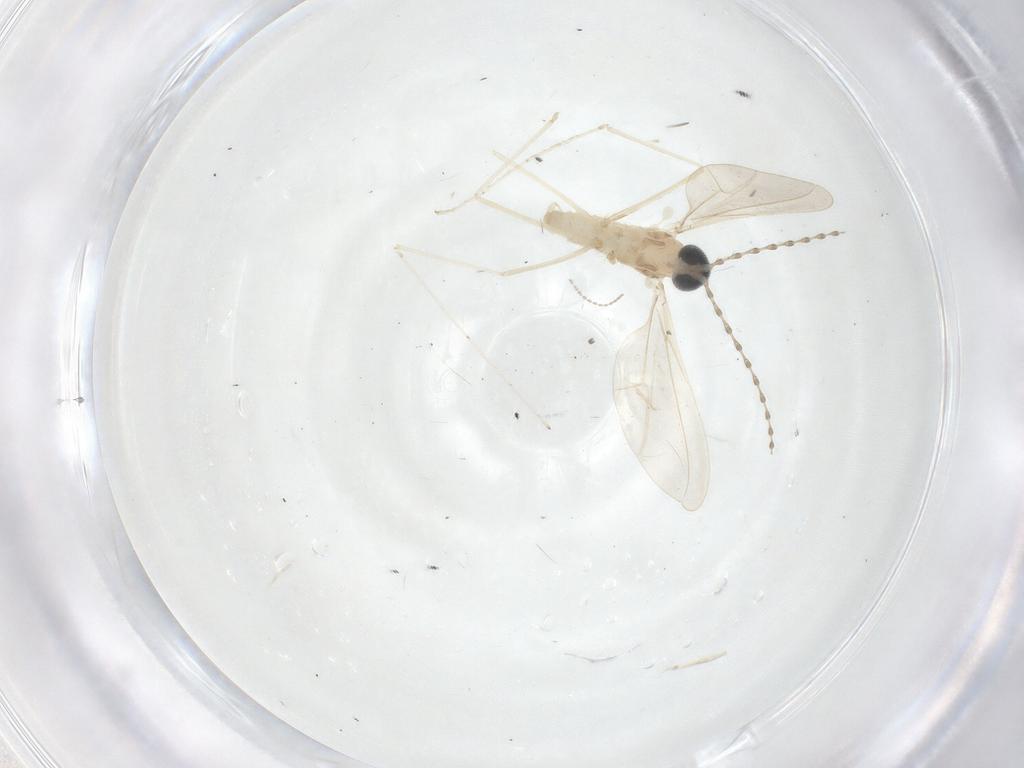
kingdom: Animalia
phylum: Arthropoda
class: Insecta
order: Diptera
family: Cecidomyiidae
